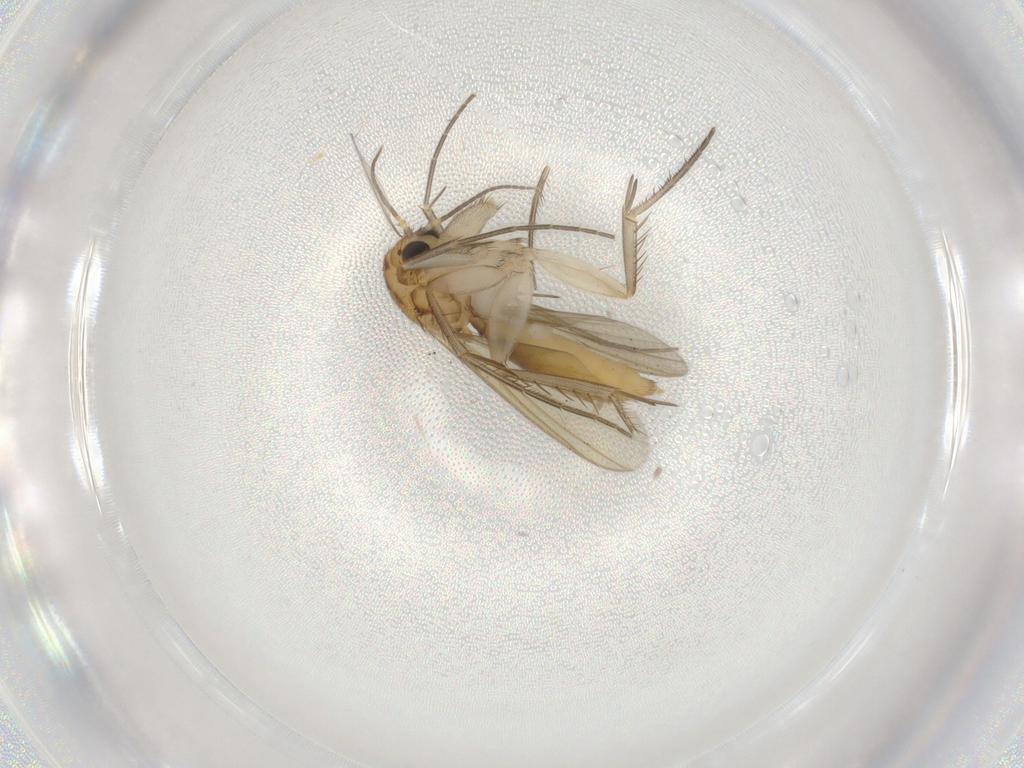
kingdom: Animalia
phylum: Arthropoda
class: Insecta
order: Diptera
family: Mycetophilidae
